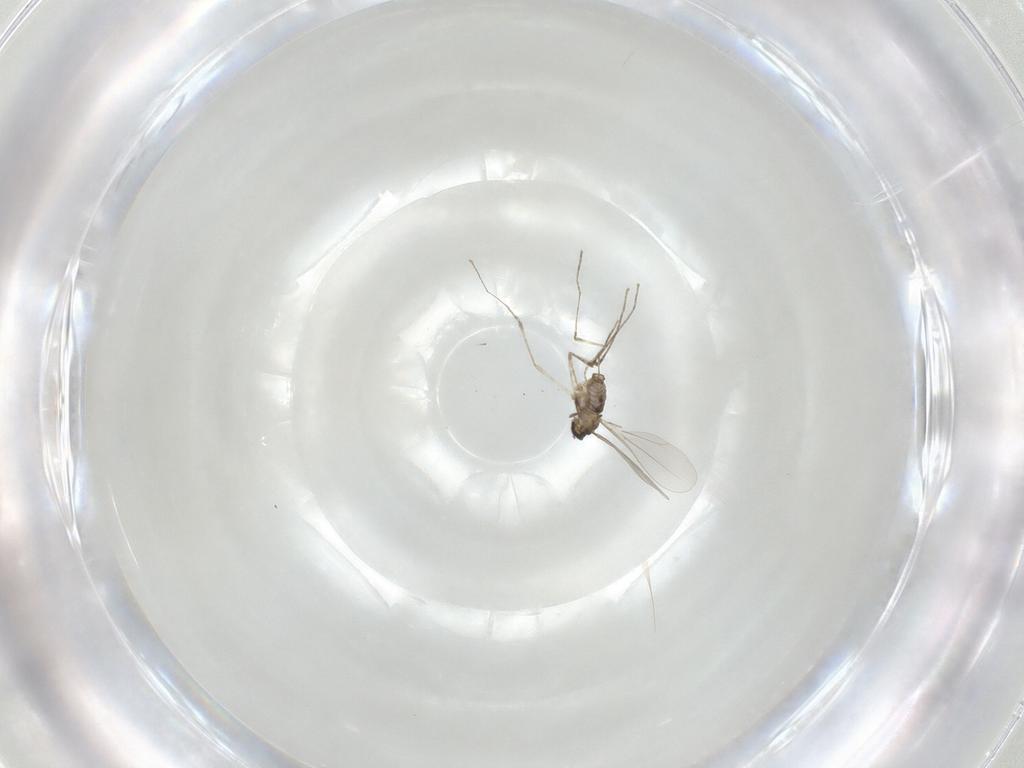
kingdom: Animalia
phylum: Arthropoda
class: Insecta
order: Diptera
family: Cecidomyiidae
